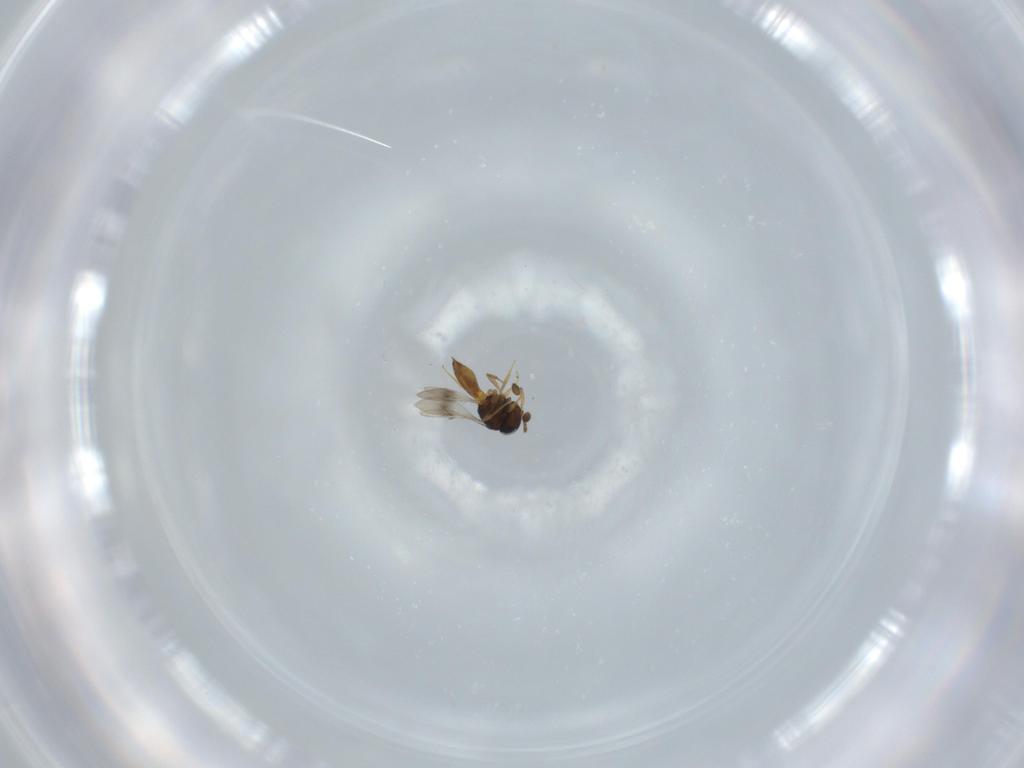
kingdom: Animalia
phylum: Arthropoda
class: Insecta
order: Hymenoptera
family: Scelionidae
